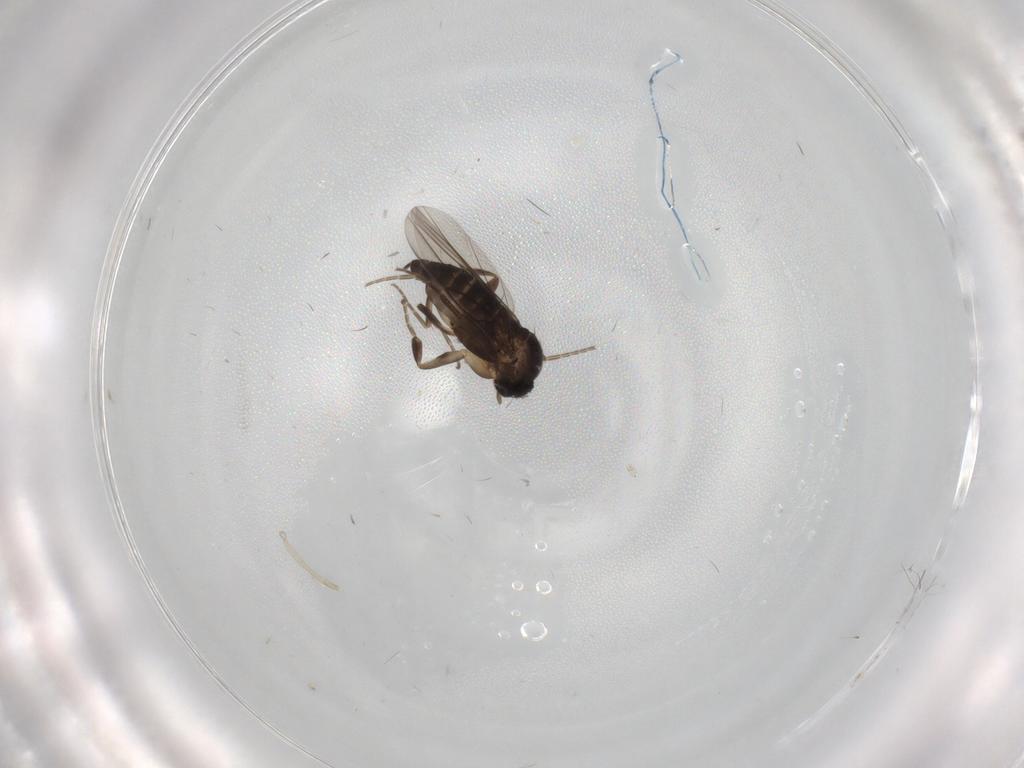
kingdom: Animalia
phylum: Arthropoda
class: Insecta
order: Diptera
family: Phoridae
